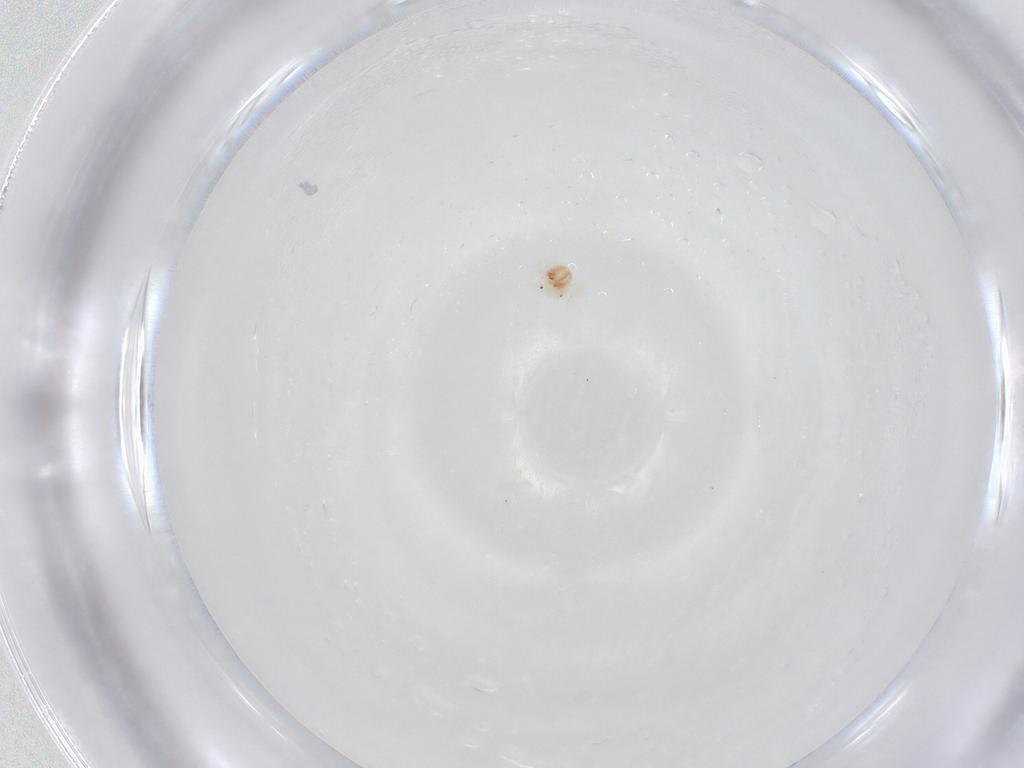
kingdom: Animalia
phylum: Arthropoda
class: Arachnida
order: Trombidiformes
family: Anystidae
